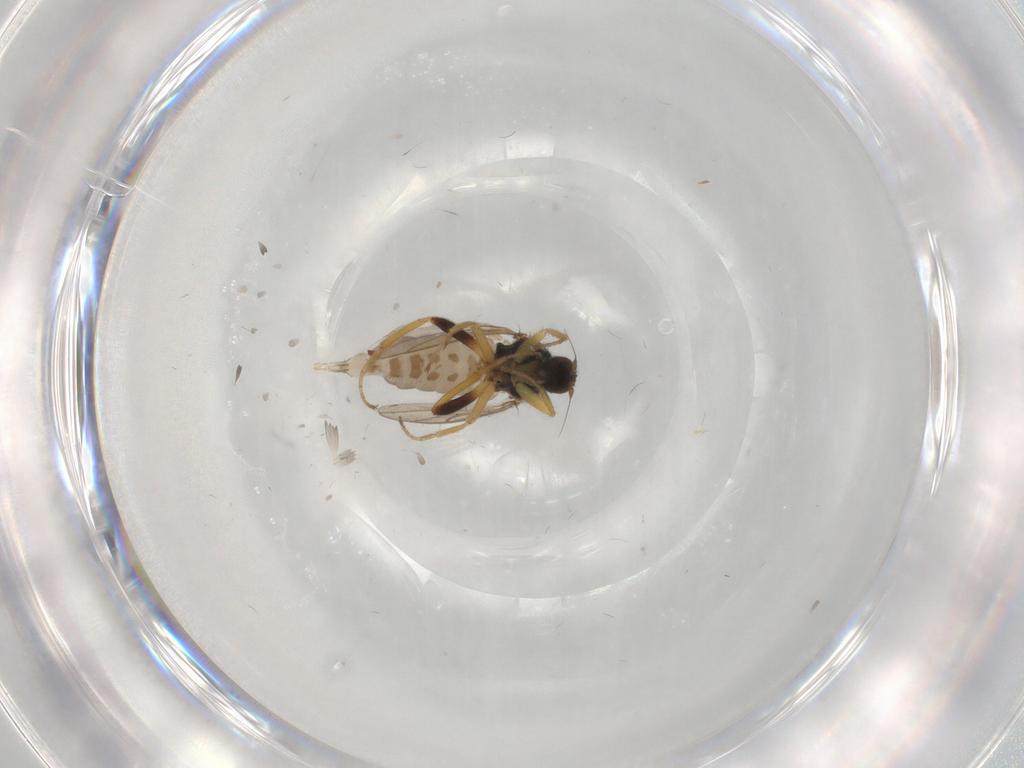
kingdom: Animalia
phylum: Arthropoda
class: Insecta
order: Diptera
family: Hybotidae
